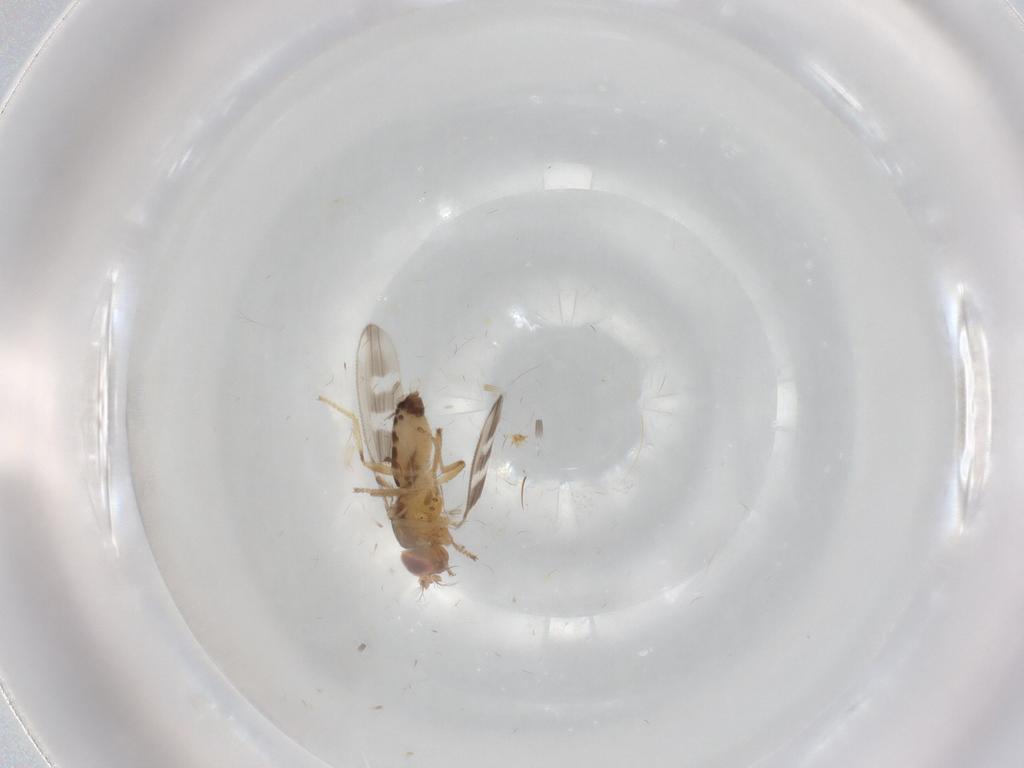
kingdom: Animalia
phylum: Arthropoda
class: Insecta
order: Diptera
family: Periscelididae
